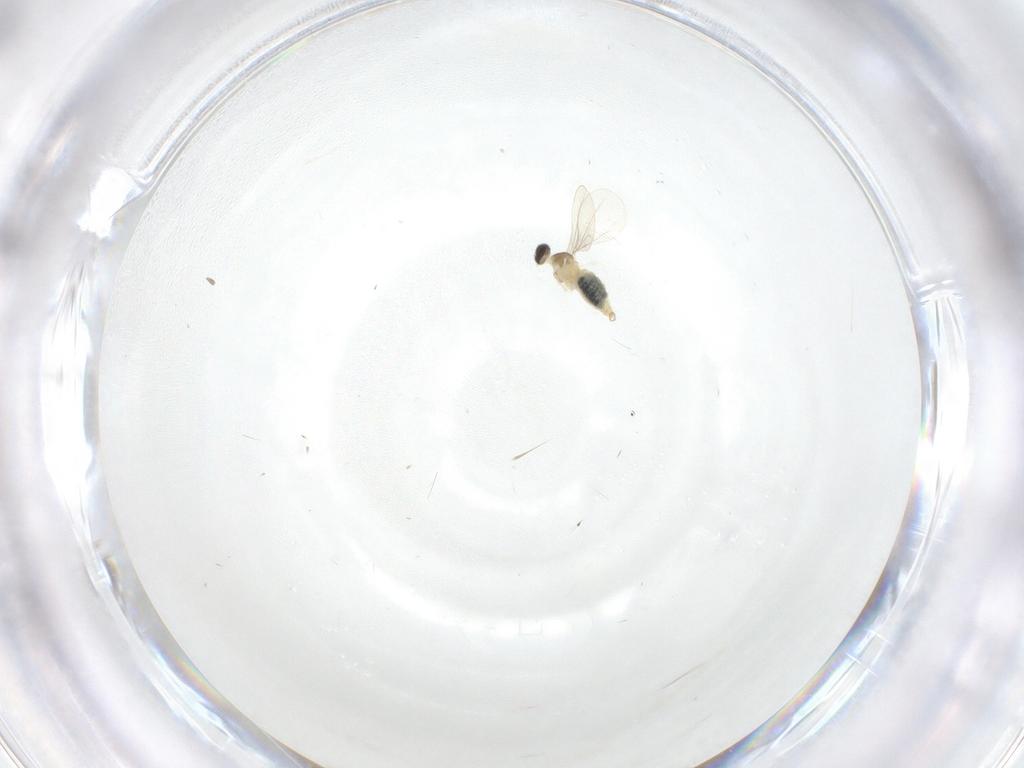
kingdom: Animalia
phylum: Arthropoda
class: Insecta
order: Diptera
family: Cecidomyiidae
